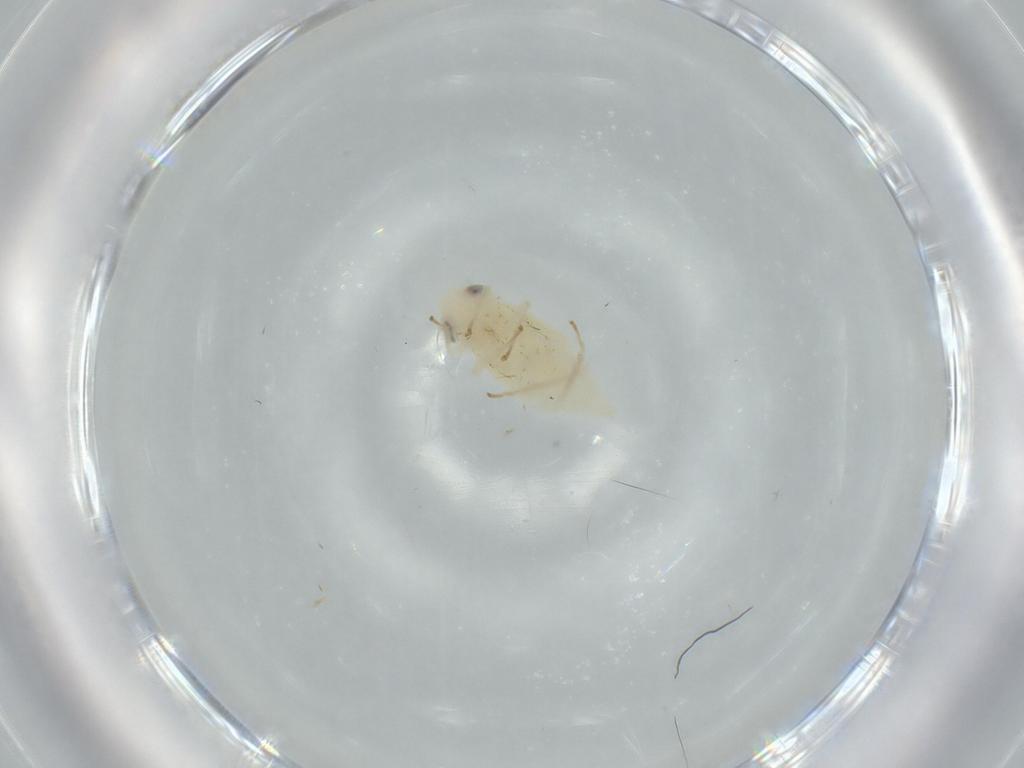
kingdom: Animalia
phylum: Arthropoda
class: Insecta
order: Hemiptera
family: Cicadellidae
